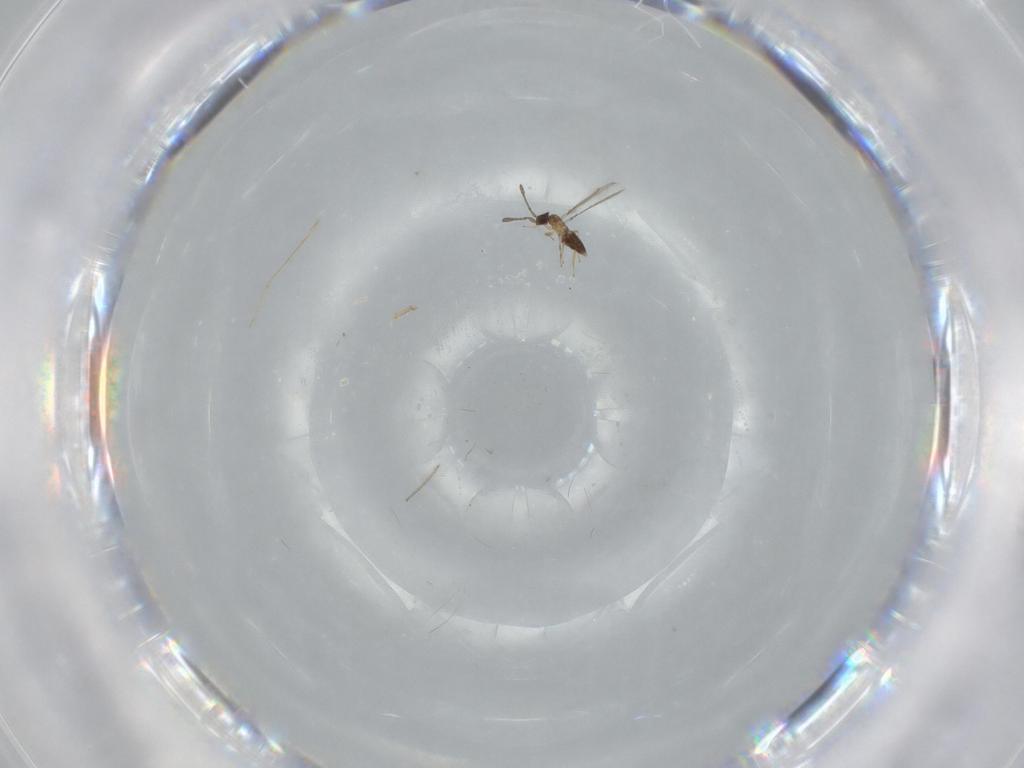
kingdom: Animalia
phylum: Arthropoda
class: Insecta
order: Hymenoptera
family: Mymaridae
